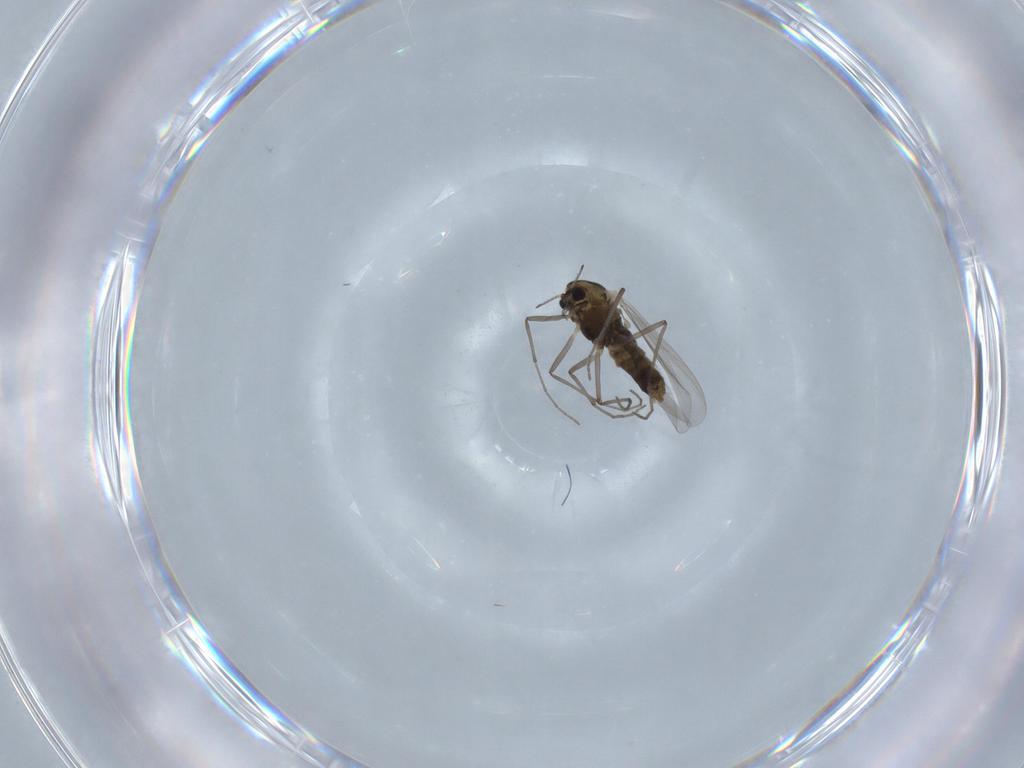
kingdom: Animalia
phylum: Arthropoda
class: Insecta
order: Diptera
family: Chironomidae
